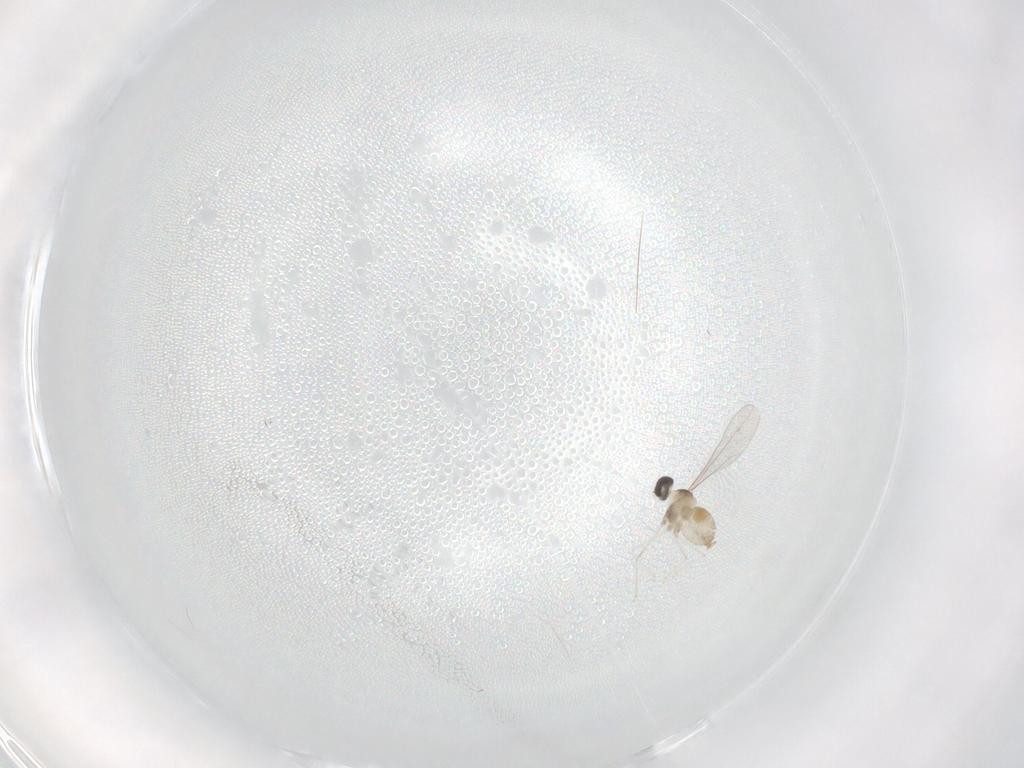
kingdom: Animalia
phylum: Arthropoda
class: Insecta
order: Diptera
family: Cecidomyiidae
